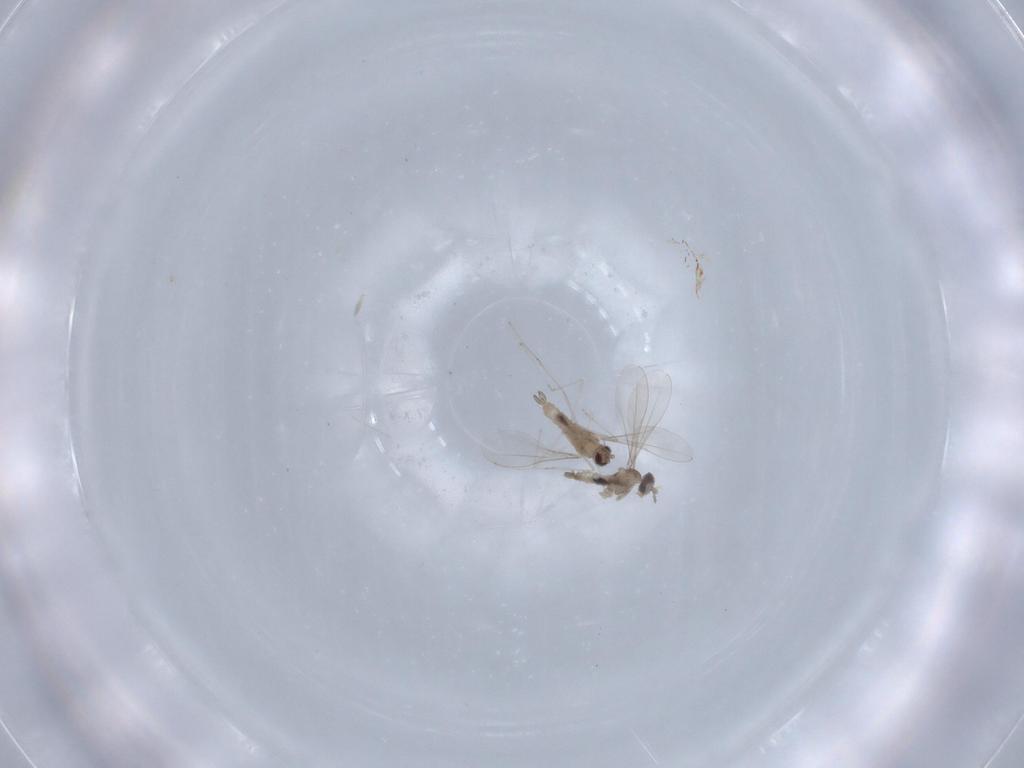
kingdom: Animalia
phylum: Arthropoda
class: Insecta
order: Diptera
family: Cecidomyiidae
